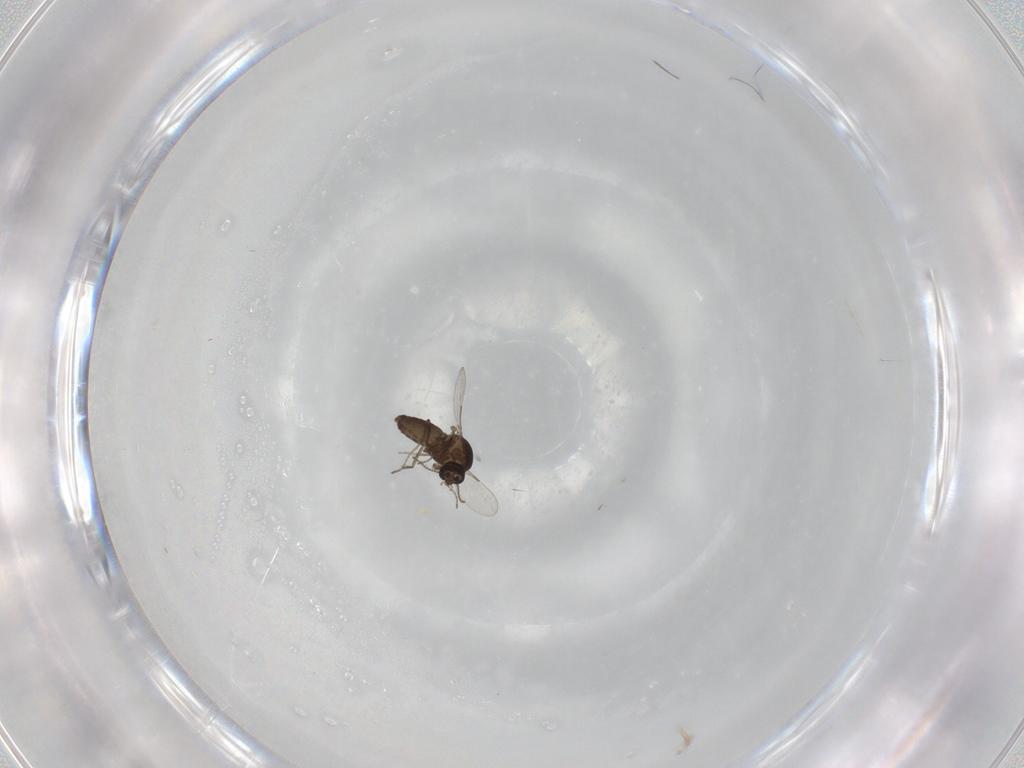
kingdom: Animalia
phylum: Arthropoda
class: Insecta
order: Diptera
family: Ceratopogonidae
